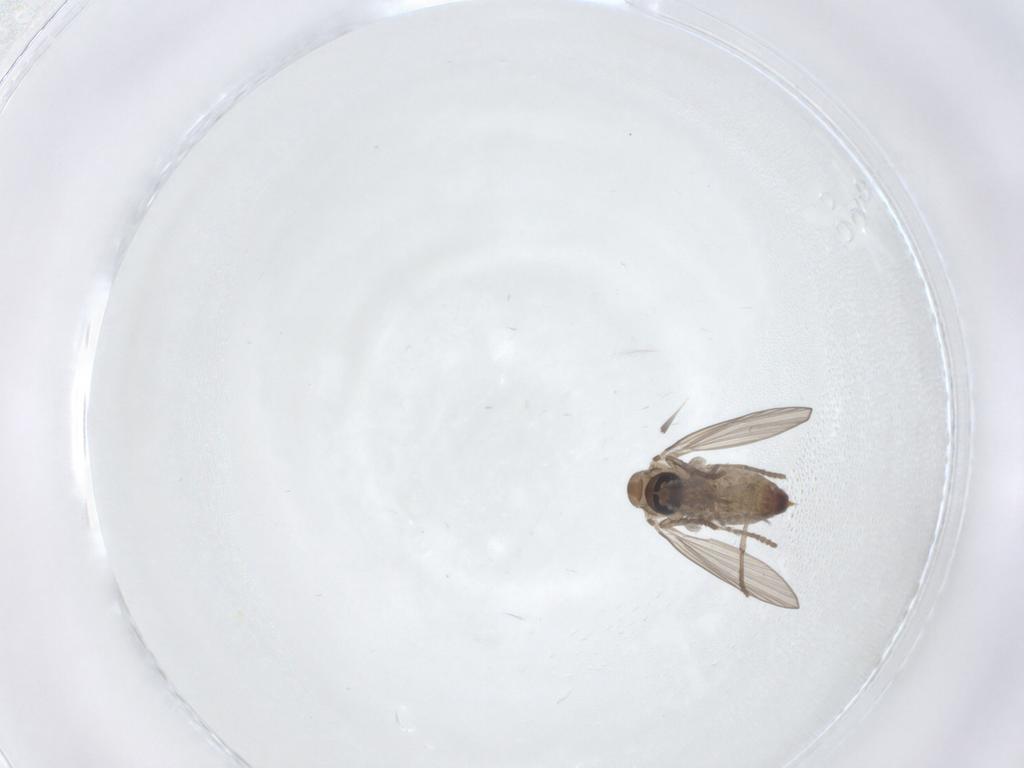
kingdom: Animalia
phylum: Arthropoda
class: Insecta
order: Diptera
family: Psychodidae
